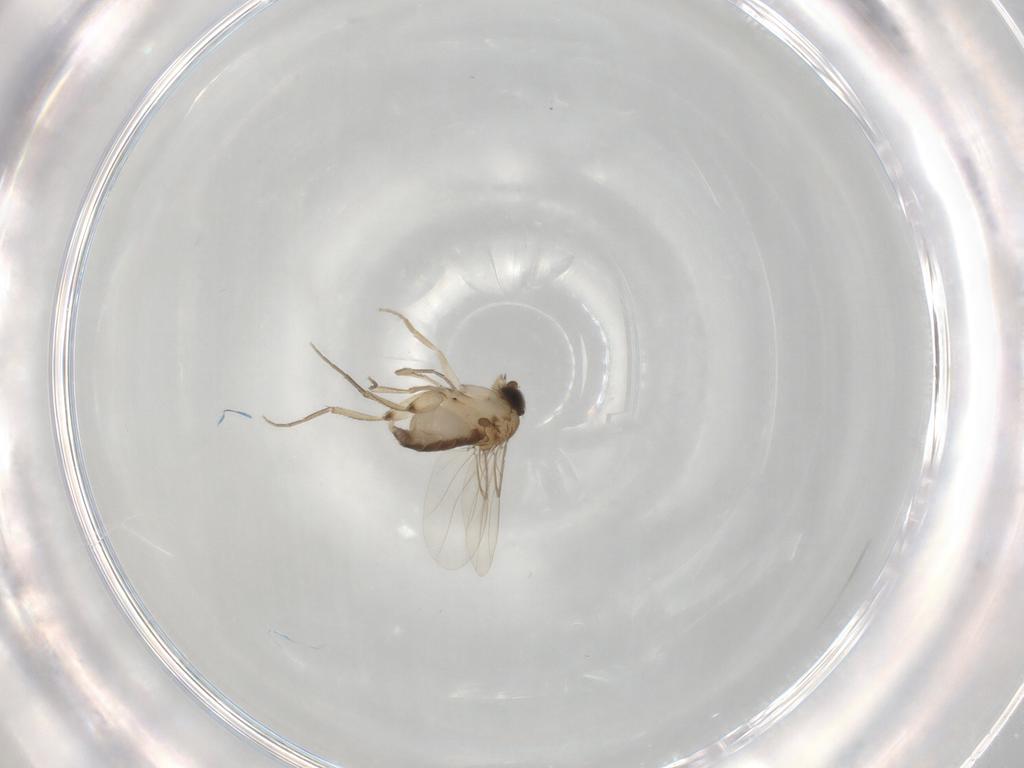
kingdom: Animalia
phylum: Arthropoda
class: Insecta
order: Diptera
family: Phoridae
